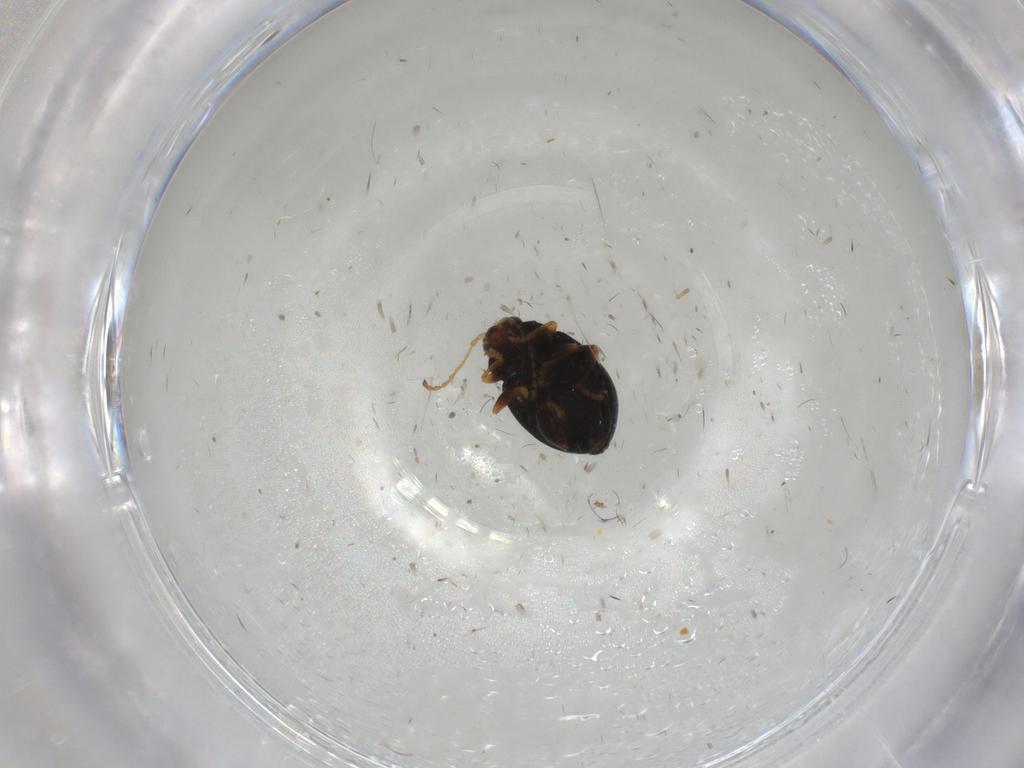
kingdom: Animalia
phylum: Arthropoda
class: Insecta
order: Coleoptera
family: Chrysomelidae
